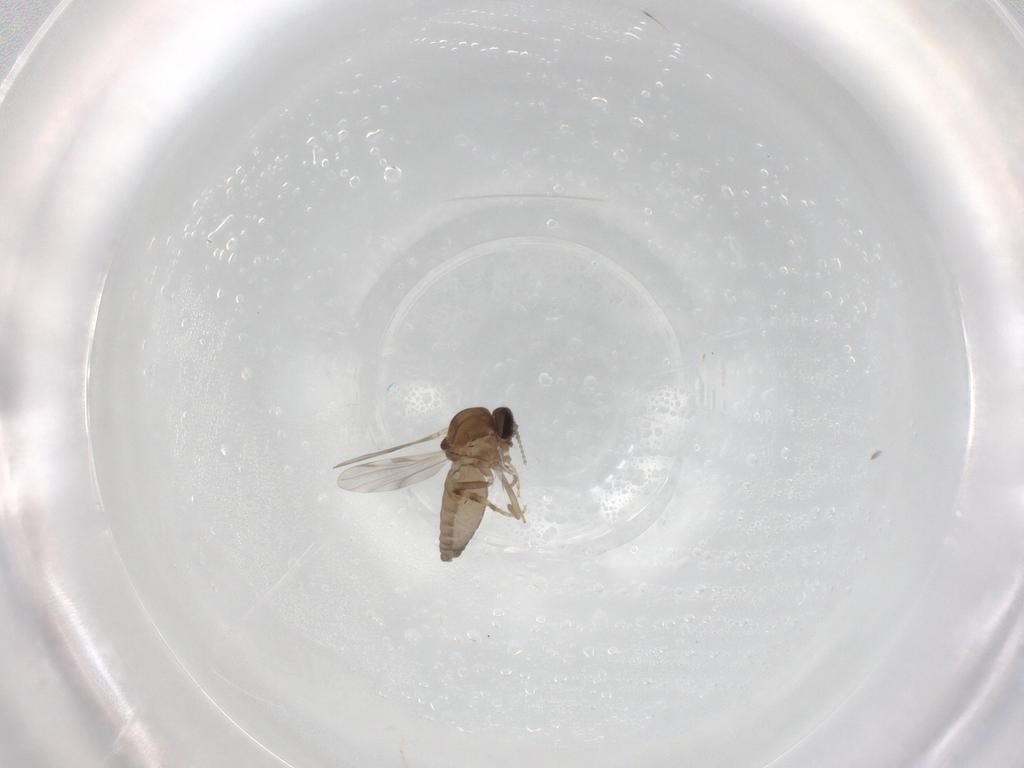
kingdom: Animalia
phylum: Arthropoda
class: Insecta
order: Diptera
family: Ceratopogonidae
